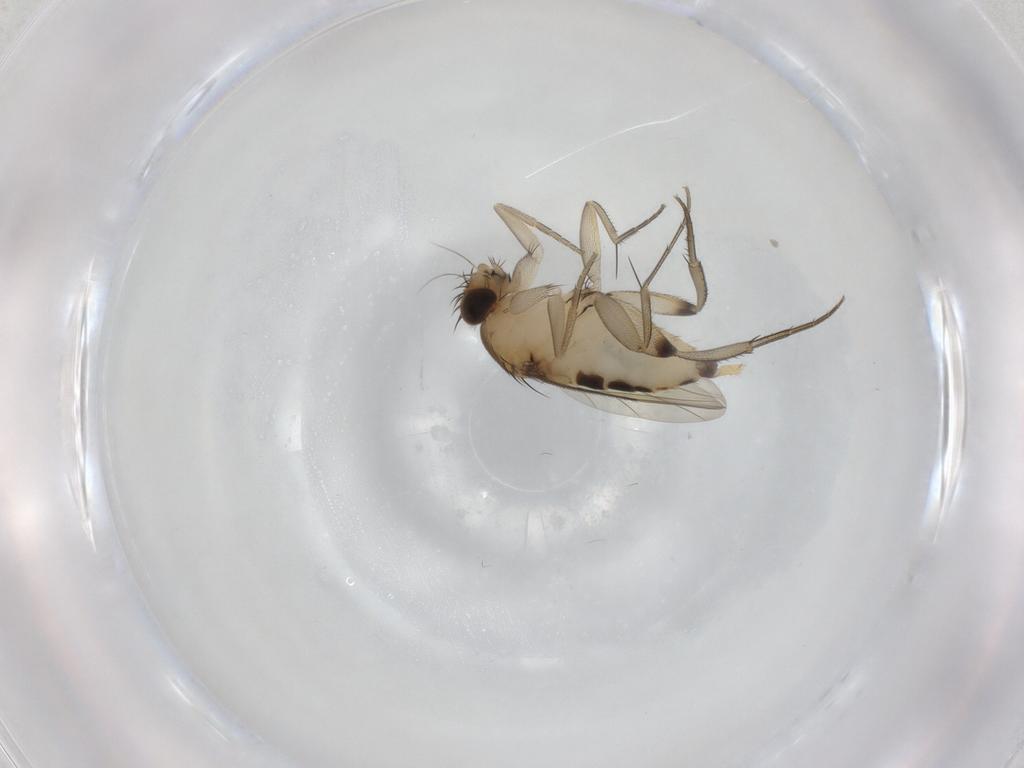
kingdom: Animalia
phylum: Arthropoda
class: Insecta
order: Diptera
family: Phoridae
